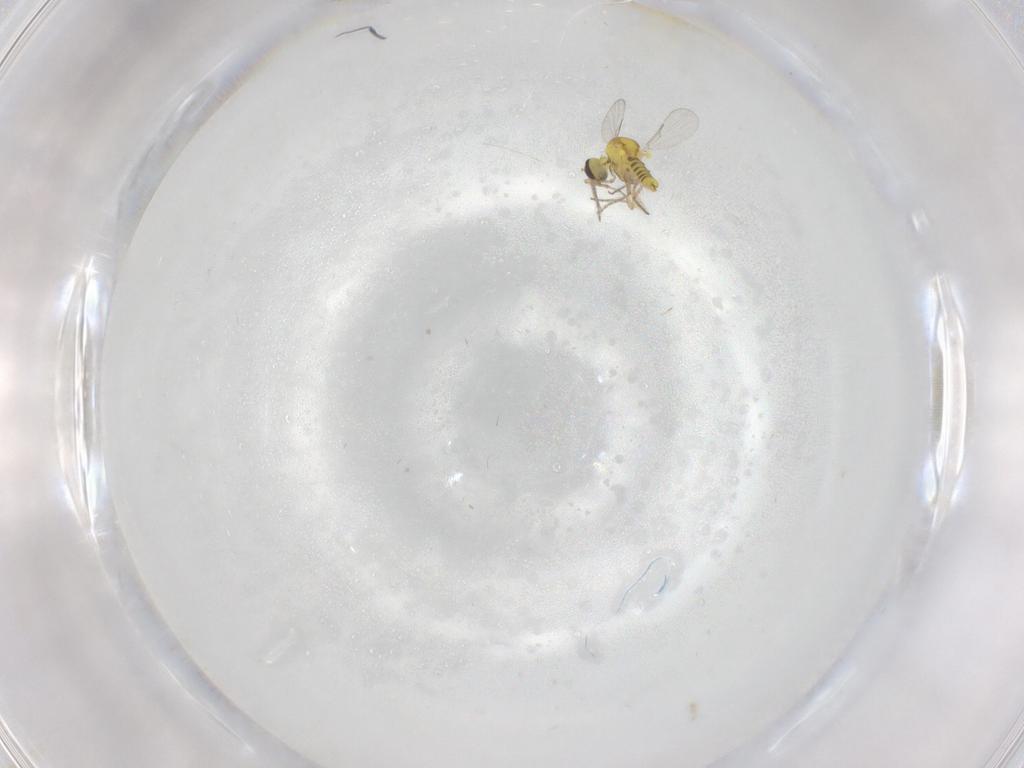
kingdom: Animalia
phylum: Arthropoda
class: Insecta
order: Diptera
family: Ceratopogonidae
